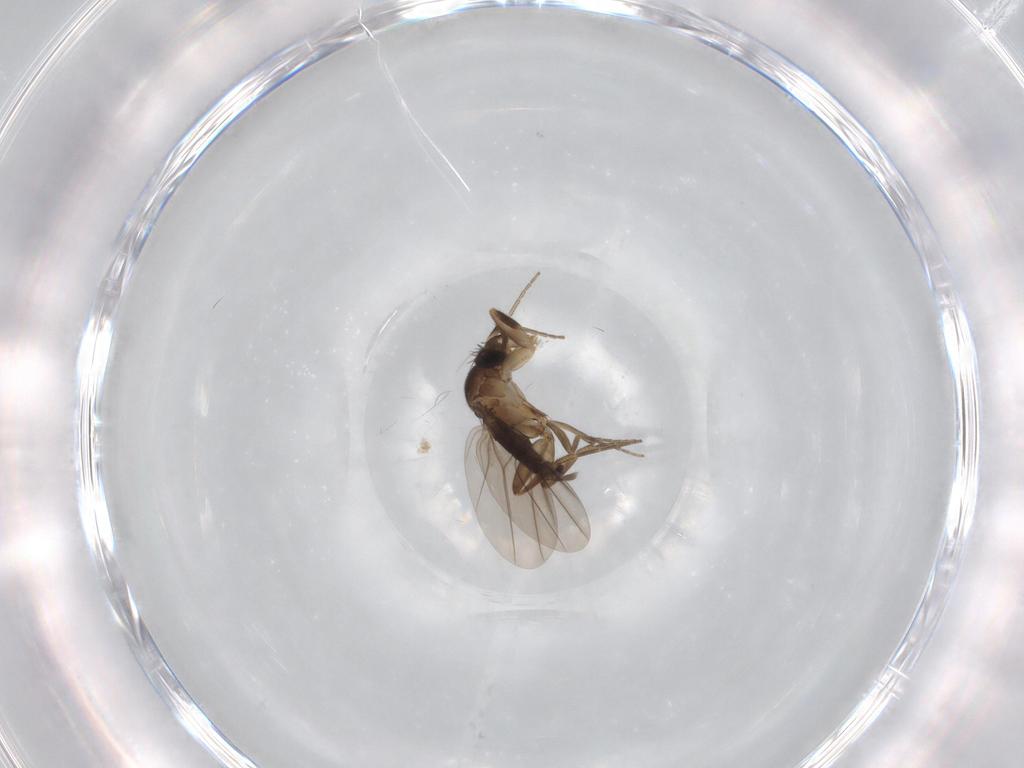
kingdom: Animalia
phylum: Arthropoda
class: Insecta
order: Diptera
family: Phoridae
